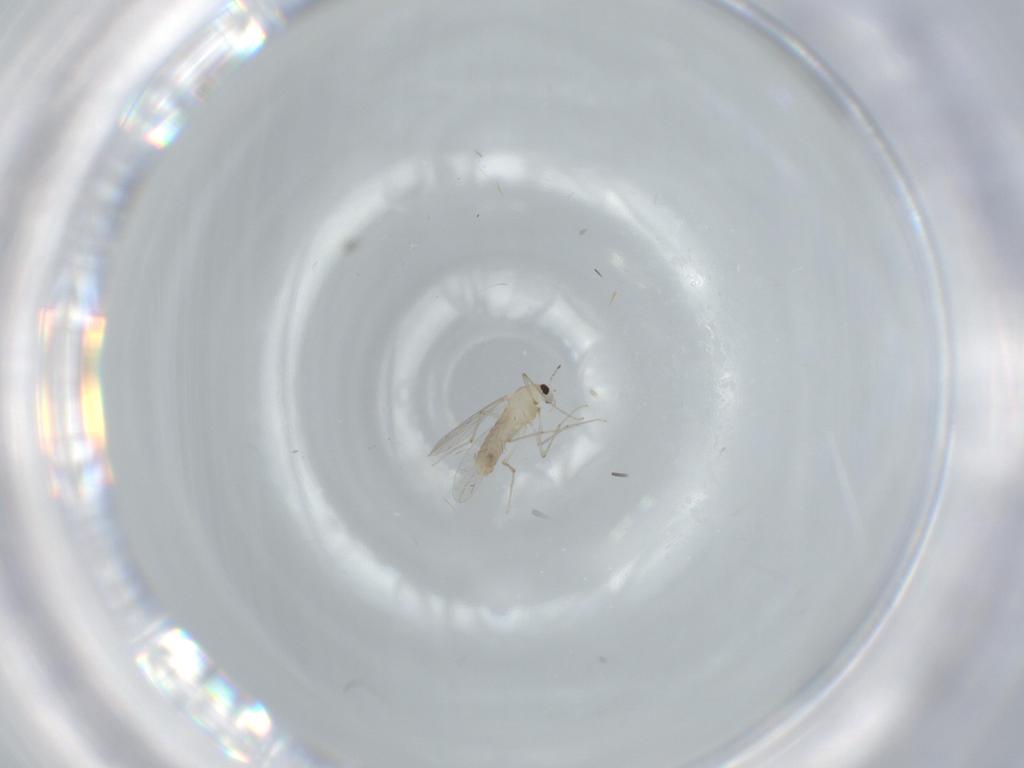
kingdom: Animalia
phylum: Arthropoda
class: Insecta
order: Diptera
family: Chironomidae
